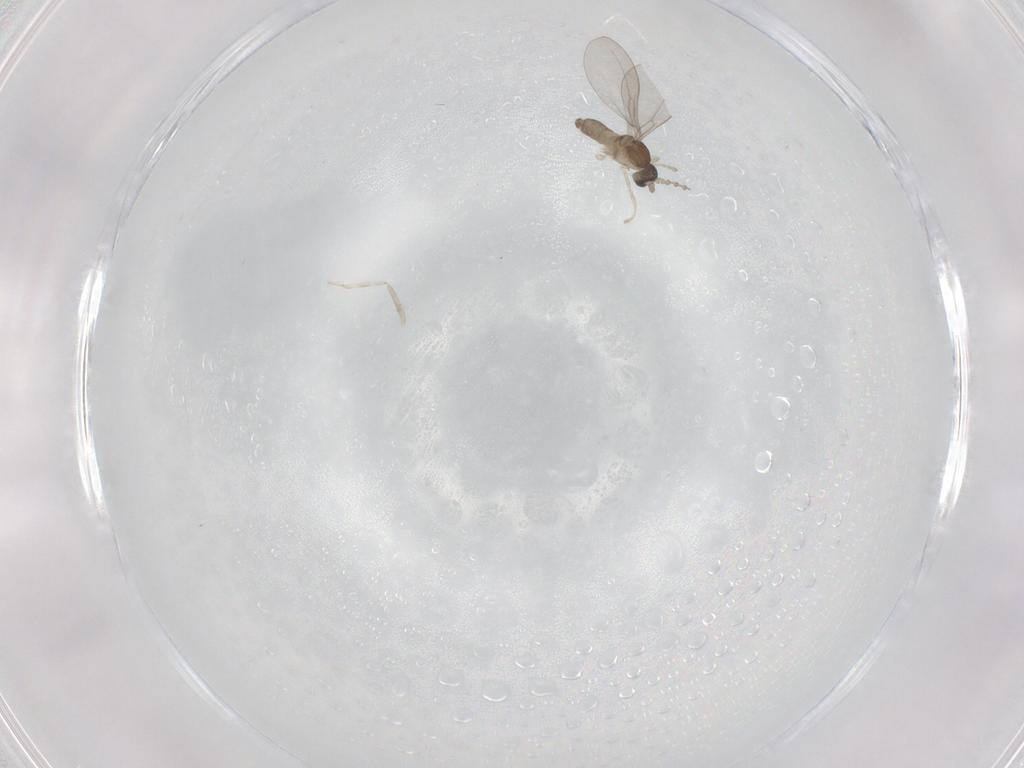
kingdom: Animalia
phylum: Arthropoda
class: Insecta
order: Diptera
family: Cecidomyiidae
